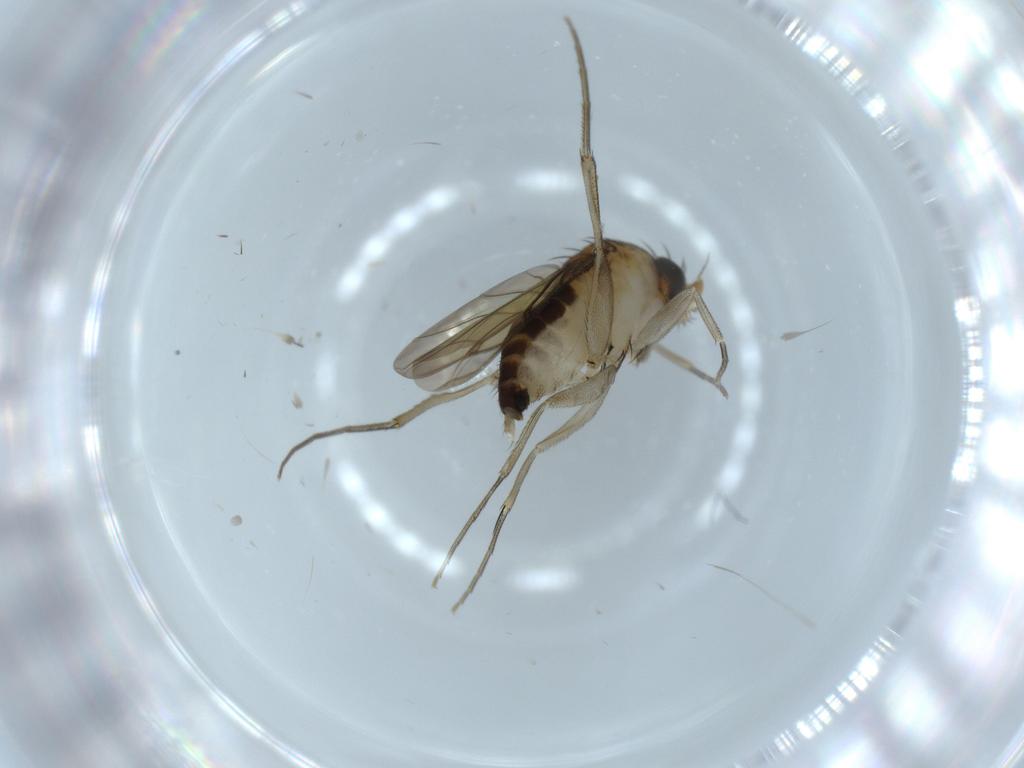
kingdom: Animalia
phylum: Arthropoda
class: Insecta
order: Diptera
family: Phoridae
